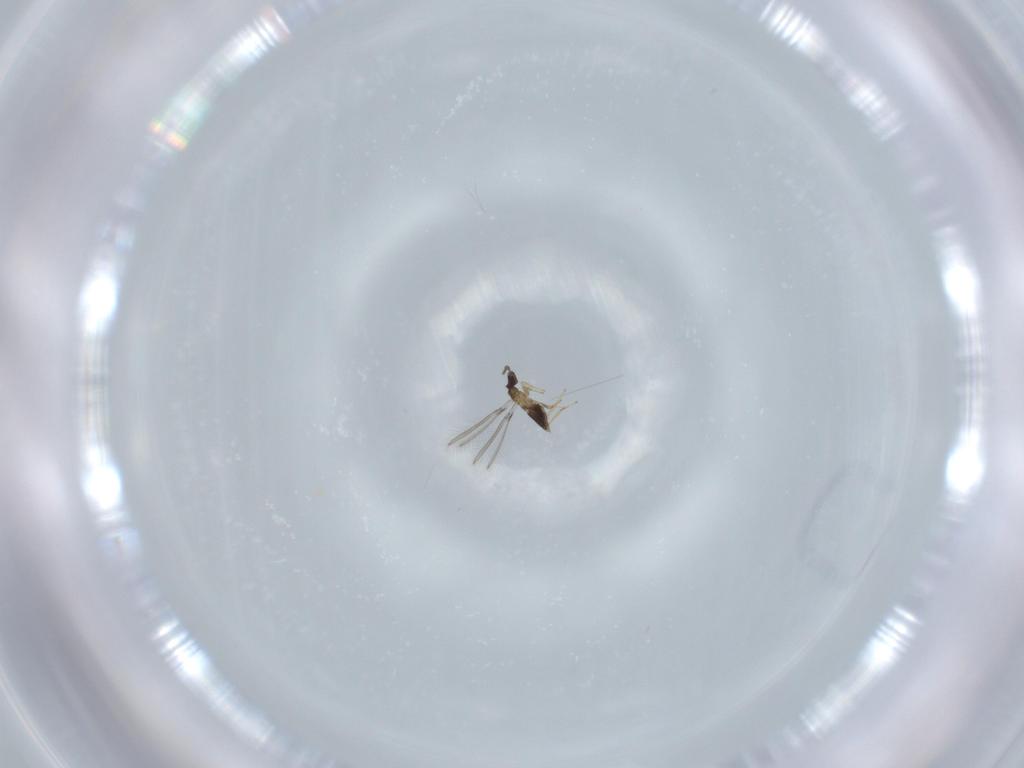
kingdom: Animalia
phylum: Arthropoda
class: Insecta
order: Hymenoptera
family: Mymaridae
